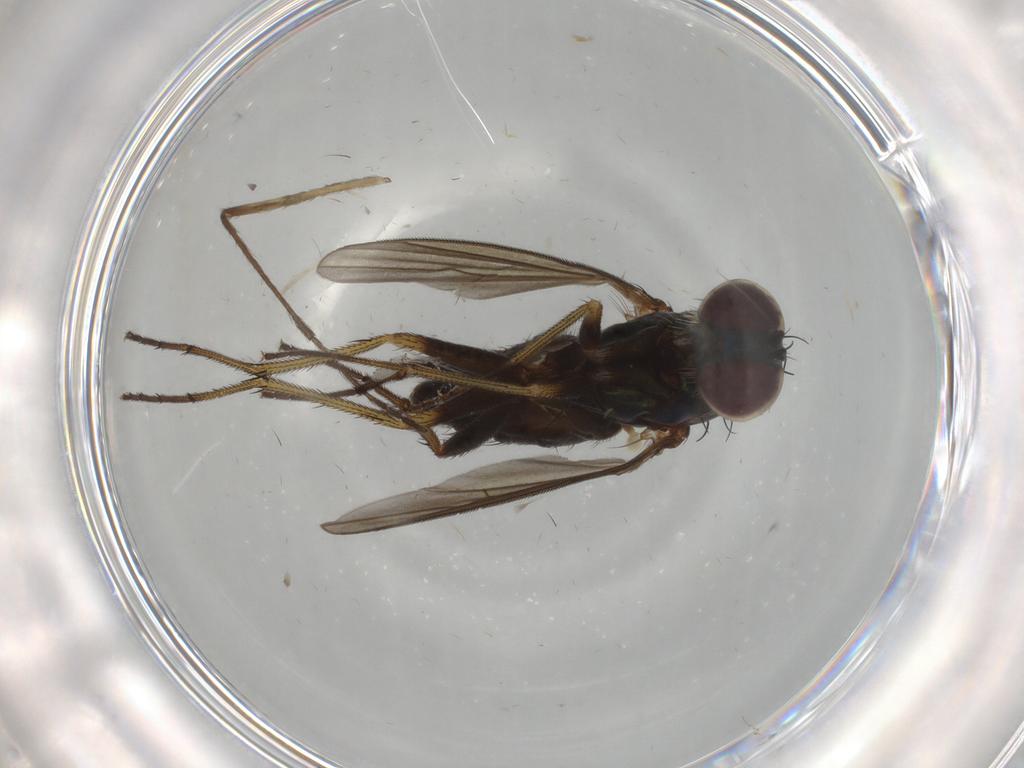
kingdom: Animalia
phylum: Arthropoda
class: Insecta
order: Diptera
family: Dolichopodidae
